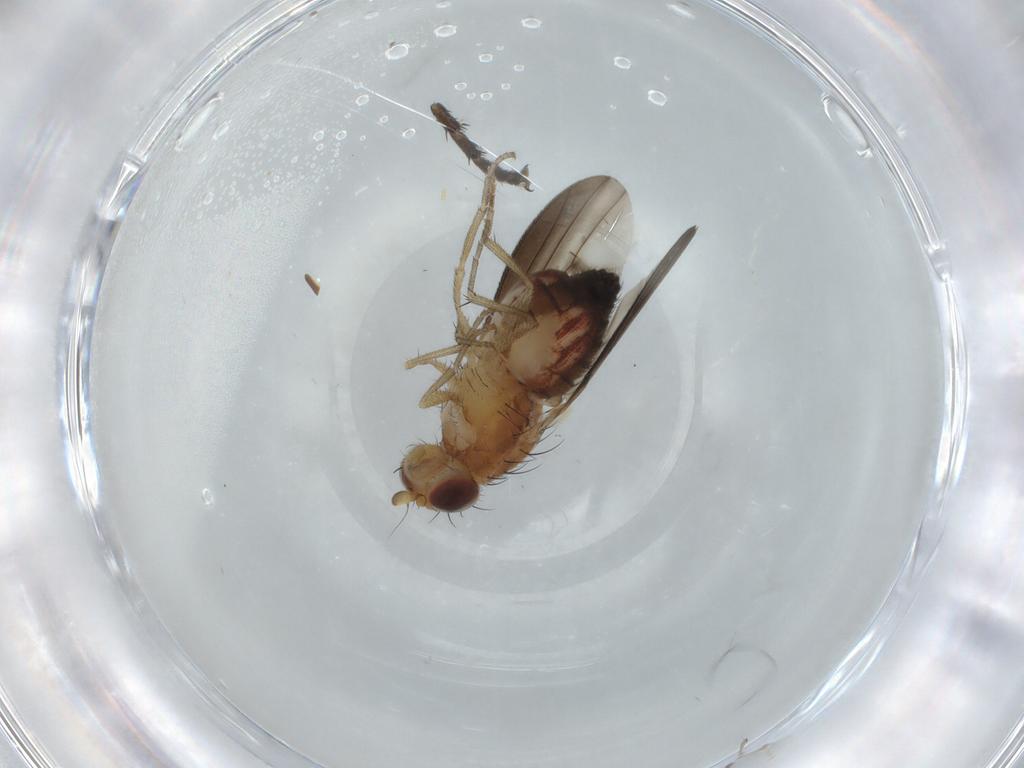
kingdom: Animalia
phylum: Arthropoda
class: Insecta
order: Diptera
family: Heleomyzidae
